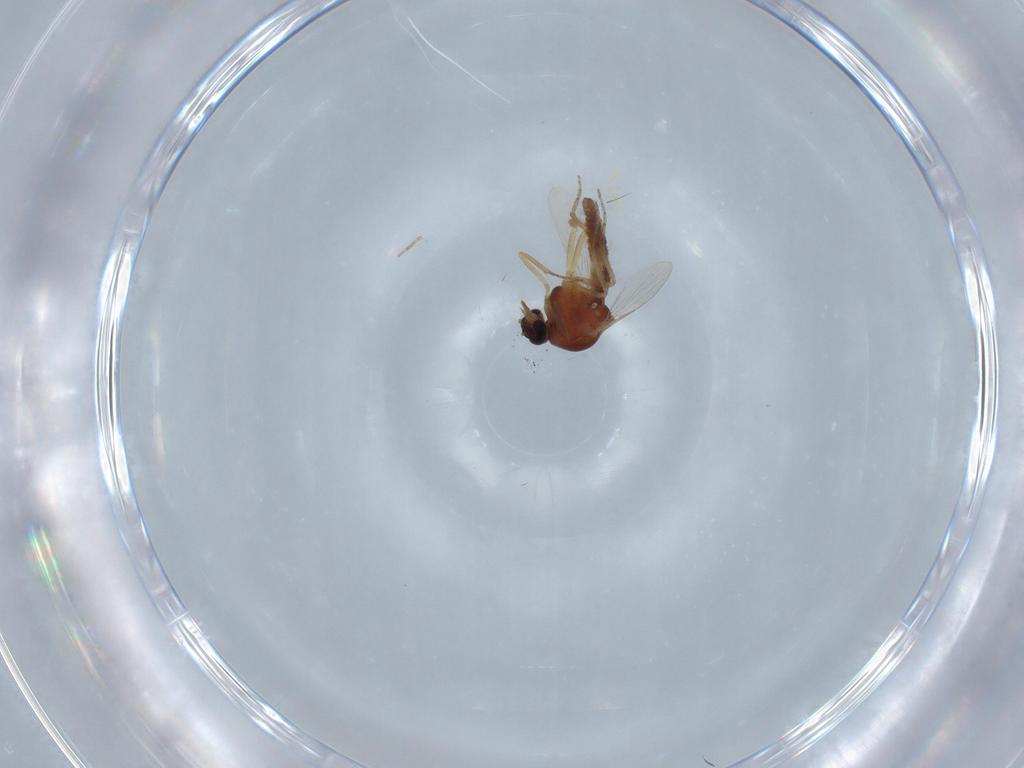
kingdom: Animalia
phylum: Arthropoda
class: Insecta
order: Diptera
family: Ceratopogonidae
